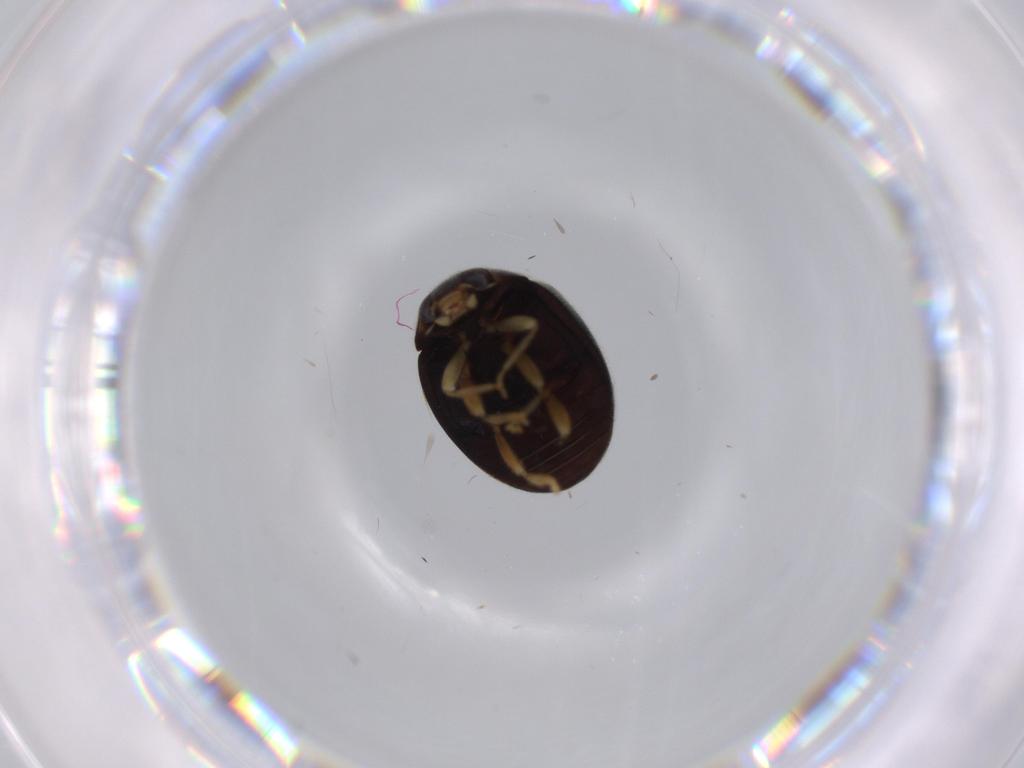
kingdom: Animalia
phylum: Arthropoda
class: Insecta
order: Coleoptera
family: Coccinellidae
